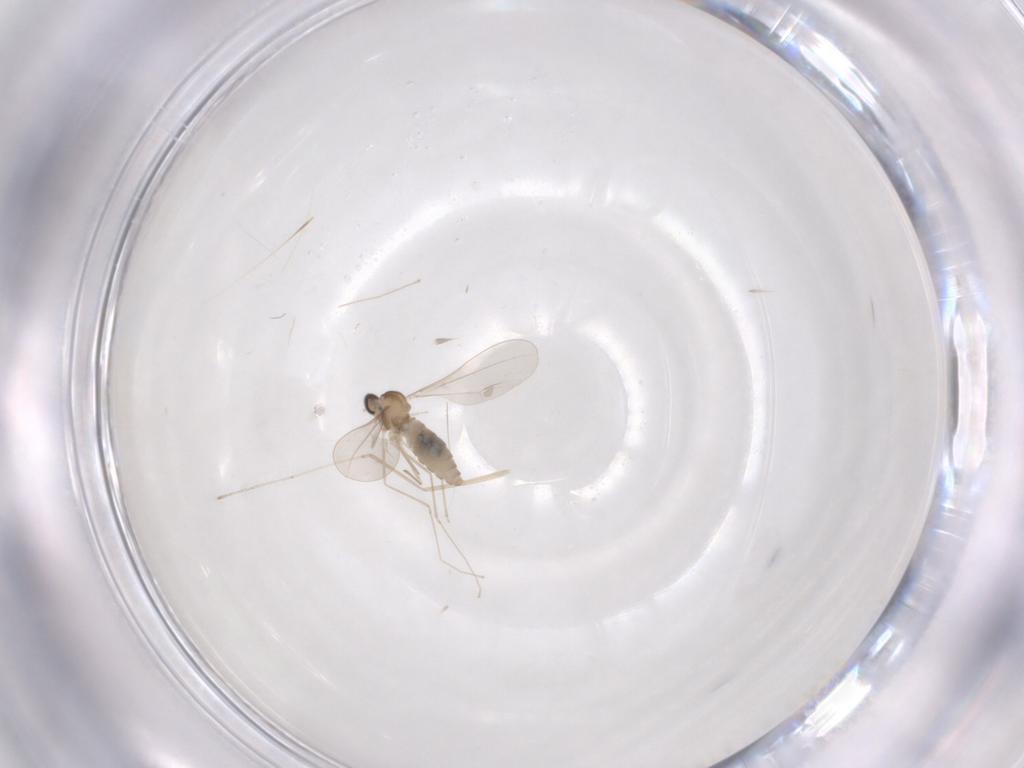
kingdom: Animalia
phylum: Arthropoda
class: Insecta
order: Diptera
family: Cecidomyiidae
